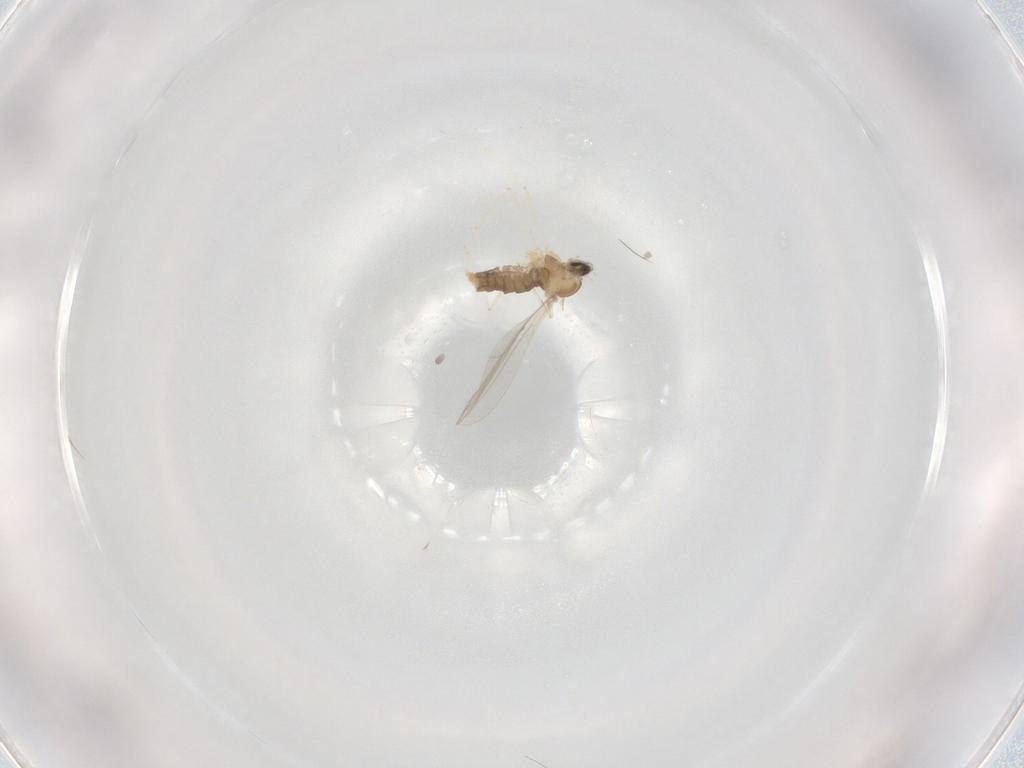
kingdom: Animalia
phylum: Arthropoda
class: Insecta
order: Diptera
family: Cecidomyiidae
